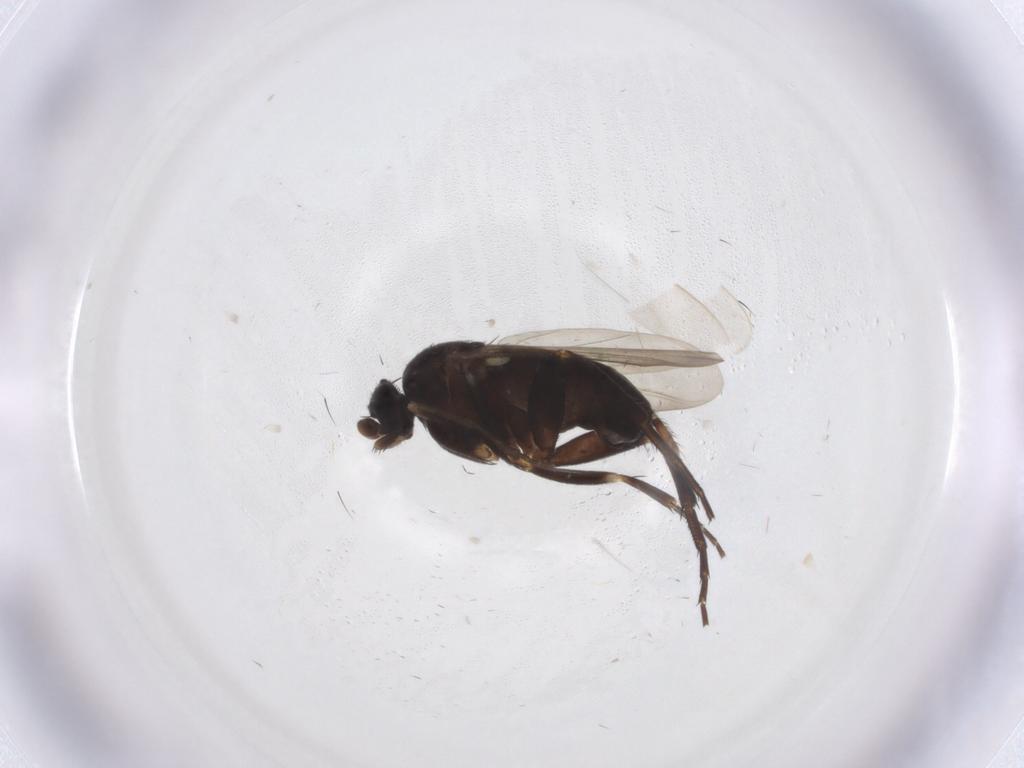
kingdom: Animalia
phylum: Arthropoda
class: Insecta
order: Diptera
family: Phoridae
